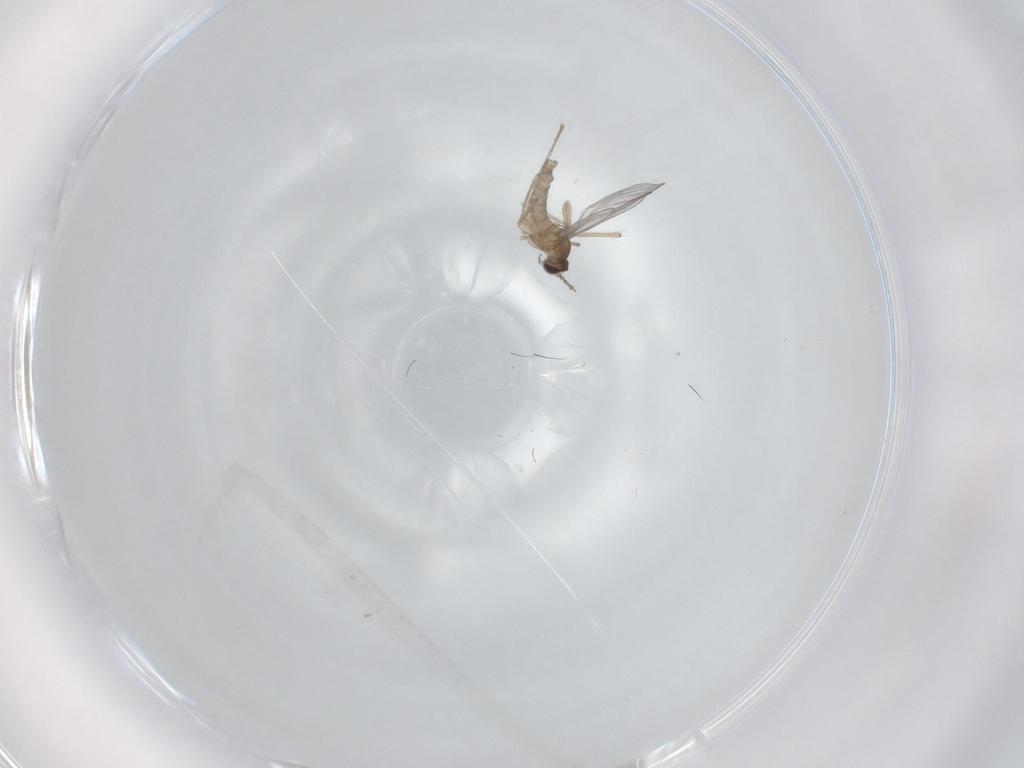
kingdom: Animalia
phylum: Arthropoda
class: Insecta
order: Diptera
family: Chironomidae
